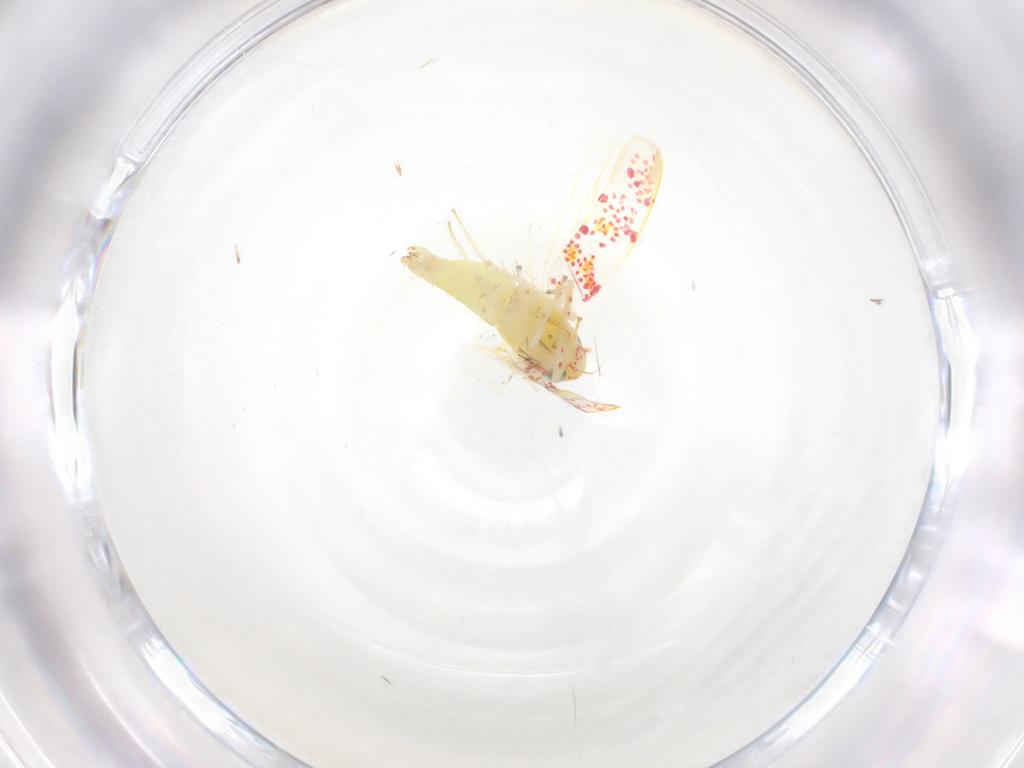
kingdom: Animalia
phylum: Arthropoda
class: Insecta
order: Hemiptera
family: Cicadellidae
